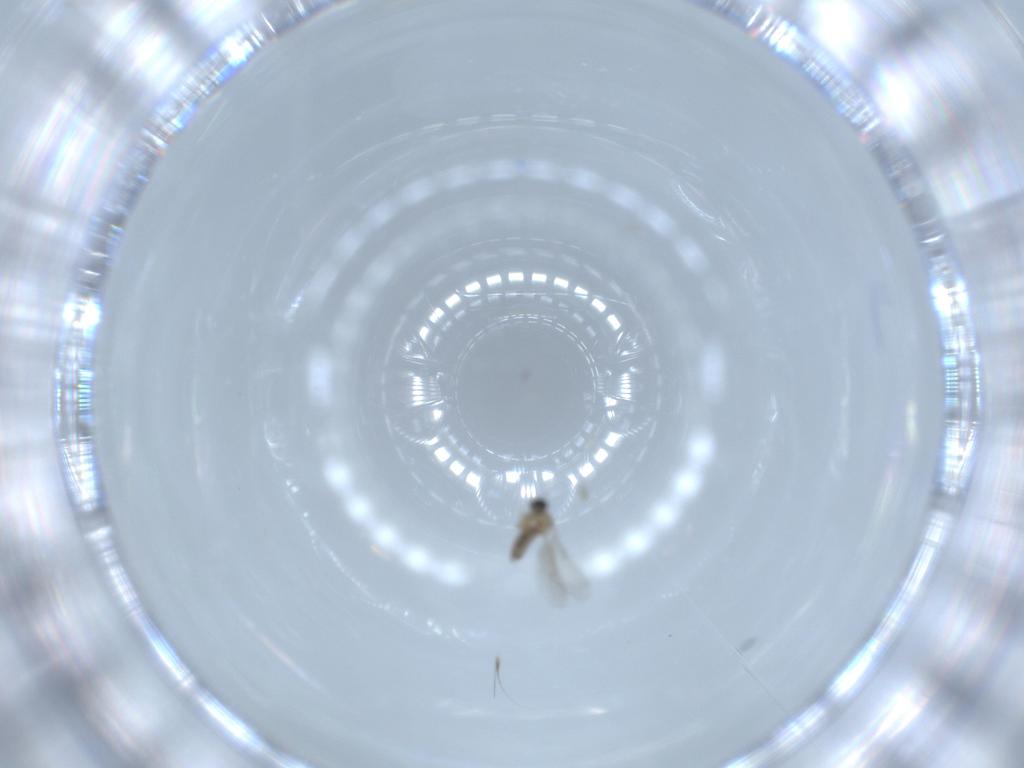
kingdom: Animalia
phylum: Arthropoda
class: Insecta
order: Diptera
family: Cecidomyiidae
